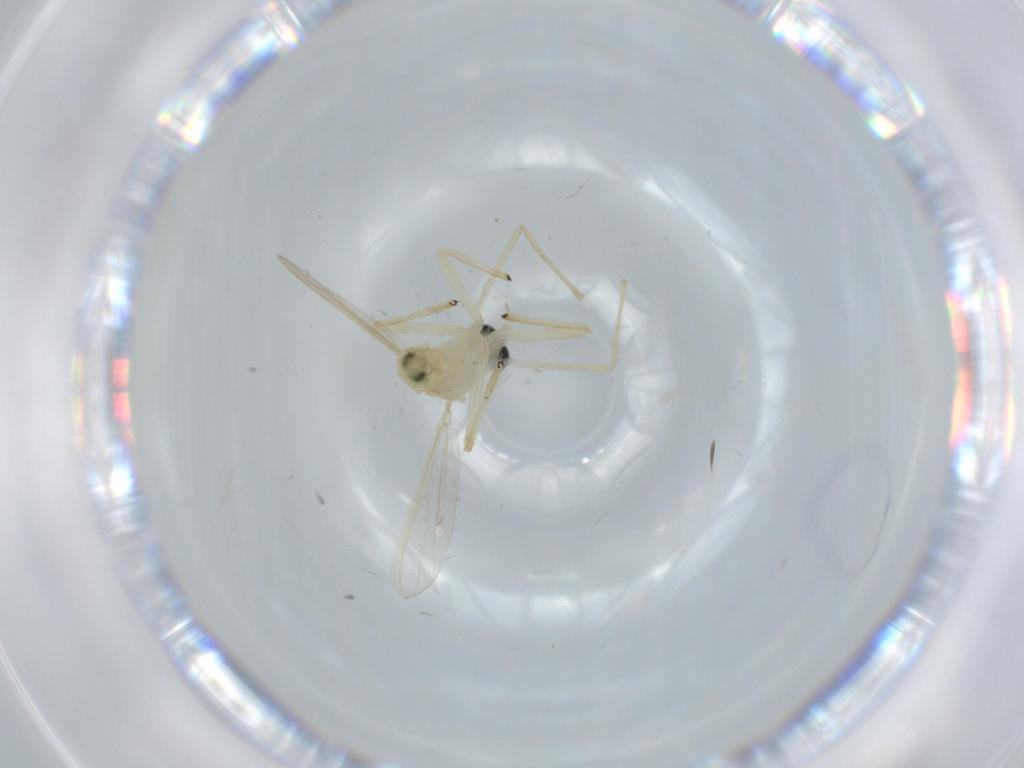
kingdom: Animalia
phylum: Arthropoda
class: Insecta
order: Diptera
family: Chironomidae
